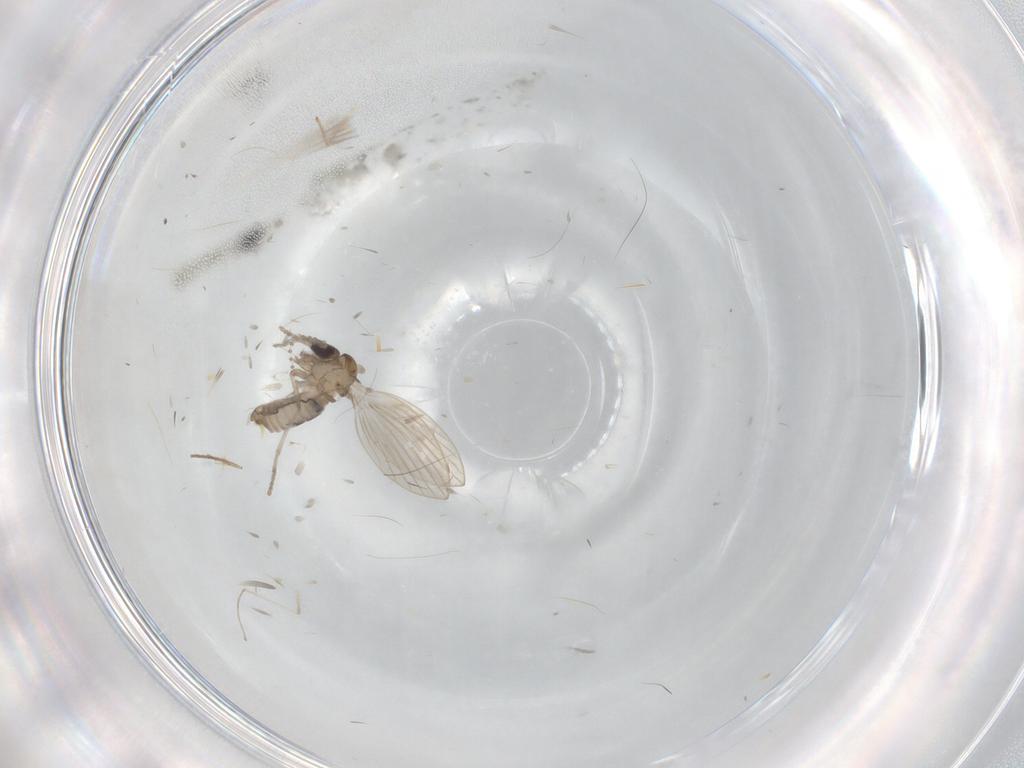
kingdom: Animalia
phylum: Arthropoda
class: Insecta
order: Diptera
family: Psychodidae
